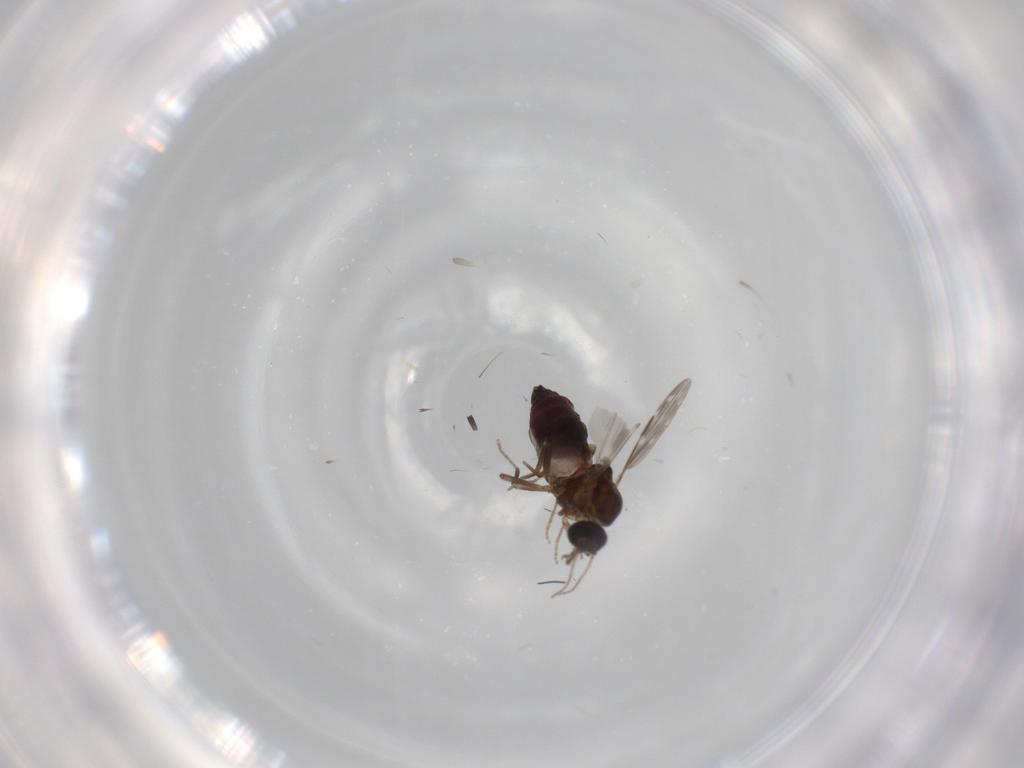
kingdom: Animalia
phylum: Arthropoda
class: Insecta
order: Diptera
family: Ceratopogonidae
